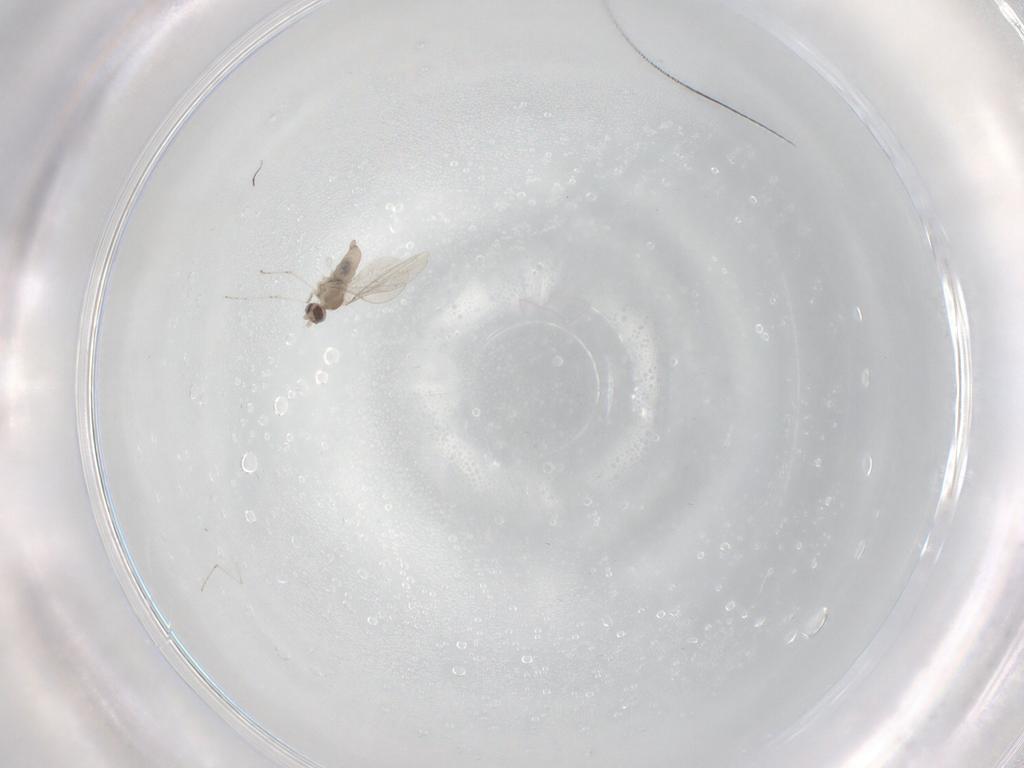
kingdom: Animalia
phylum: Arthropoda
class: Insecta
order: Diptera
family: Cecidomyiidae
